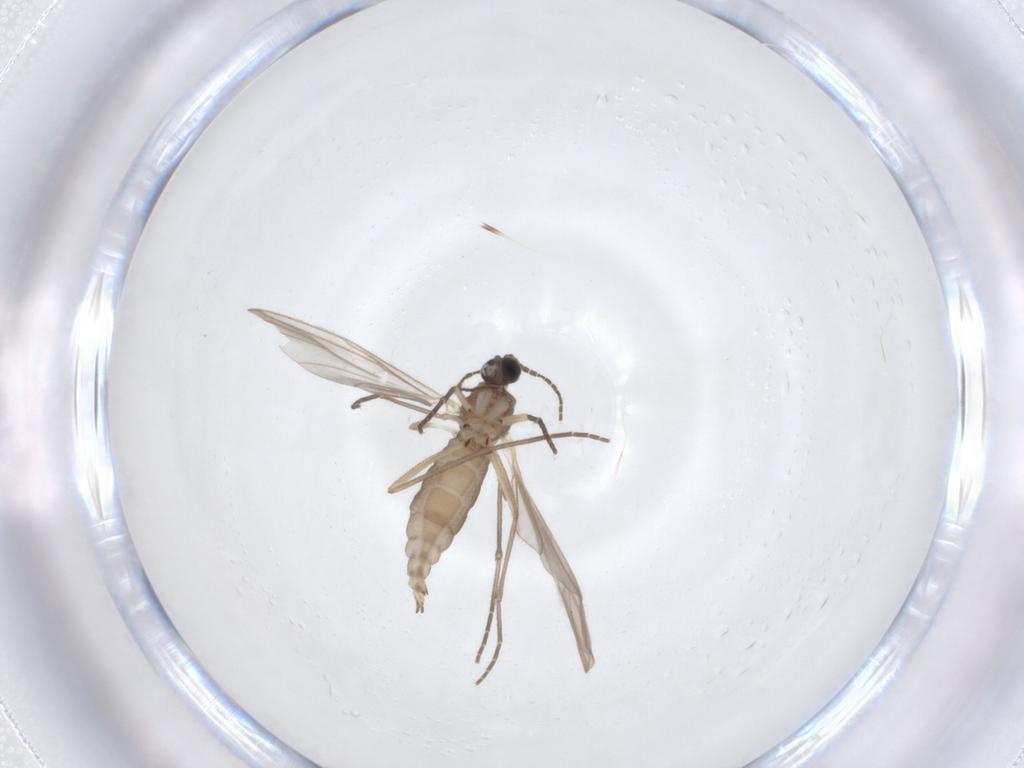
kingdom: Animalia
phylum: Arthropoda
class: Insecta
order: Diptera
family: Sciaridae
